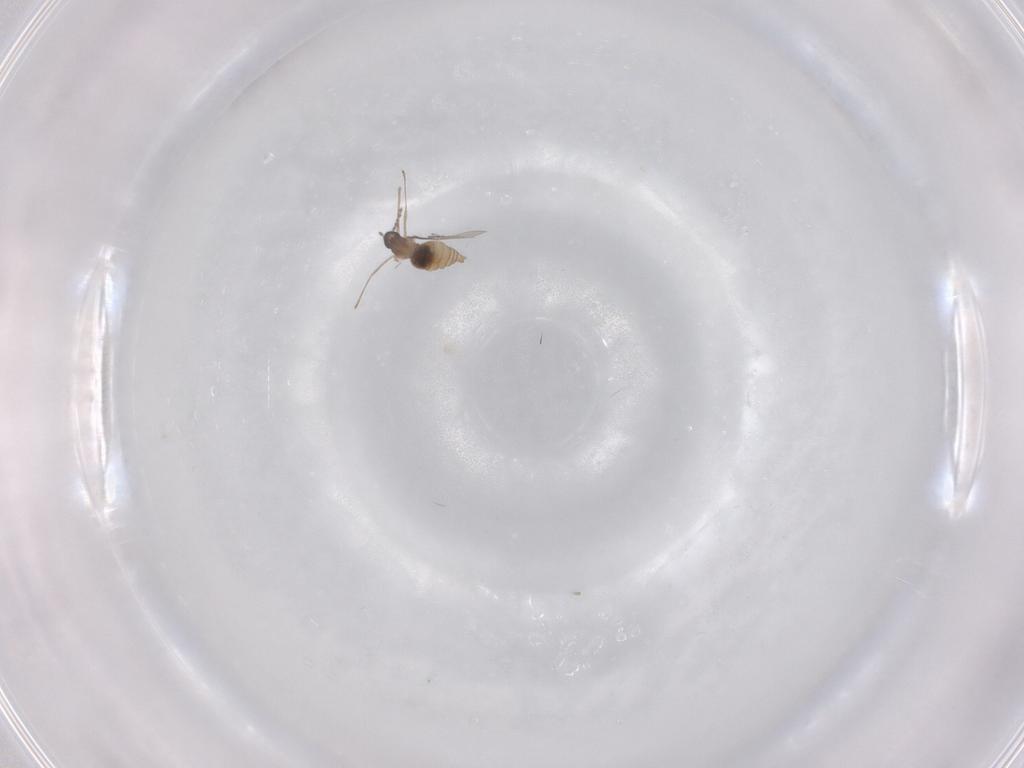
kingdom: Animalia
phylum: Arthropoda
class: Insecta
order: Diptera
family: Cecidomyiidae
